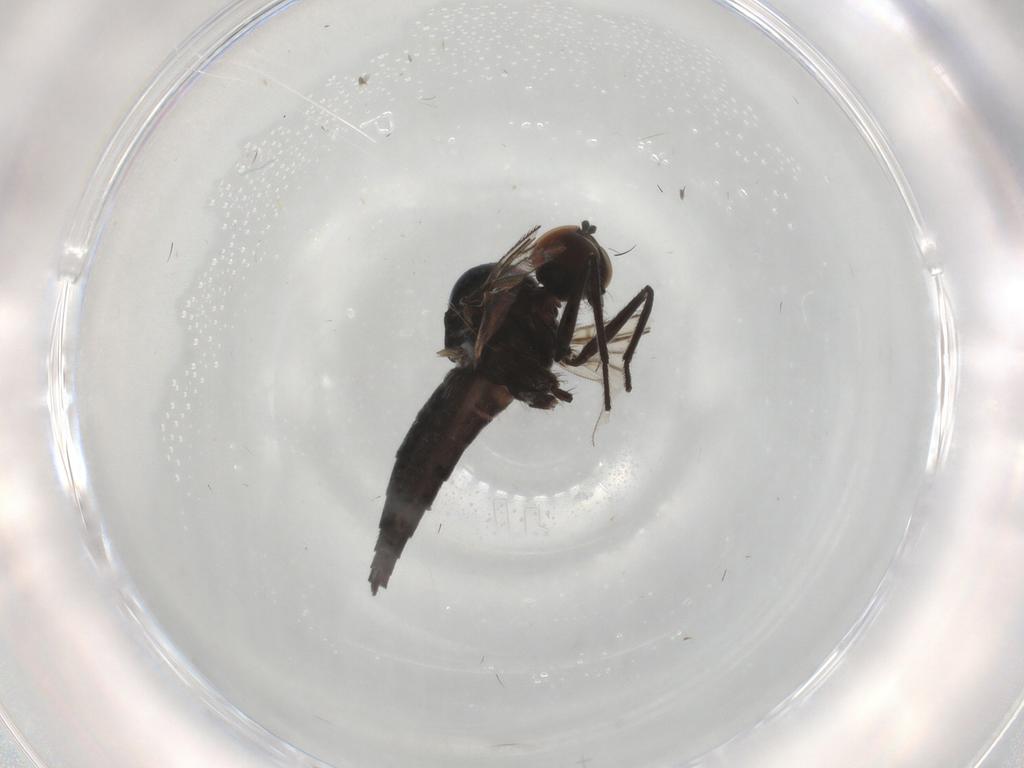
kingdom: Animalia
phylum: Arthropoda
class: Insecta
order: Diptera
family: Hybotidae
